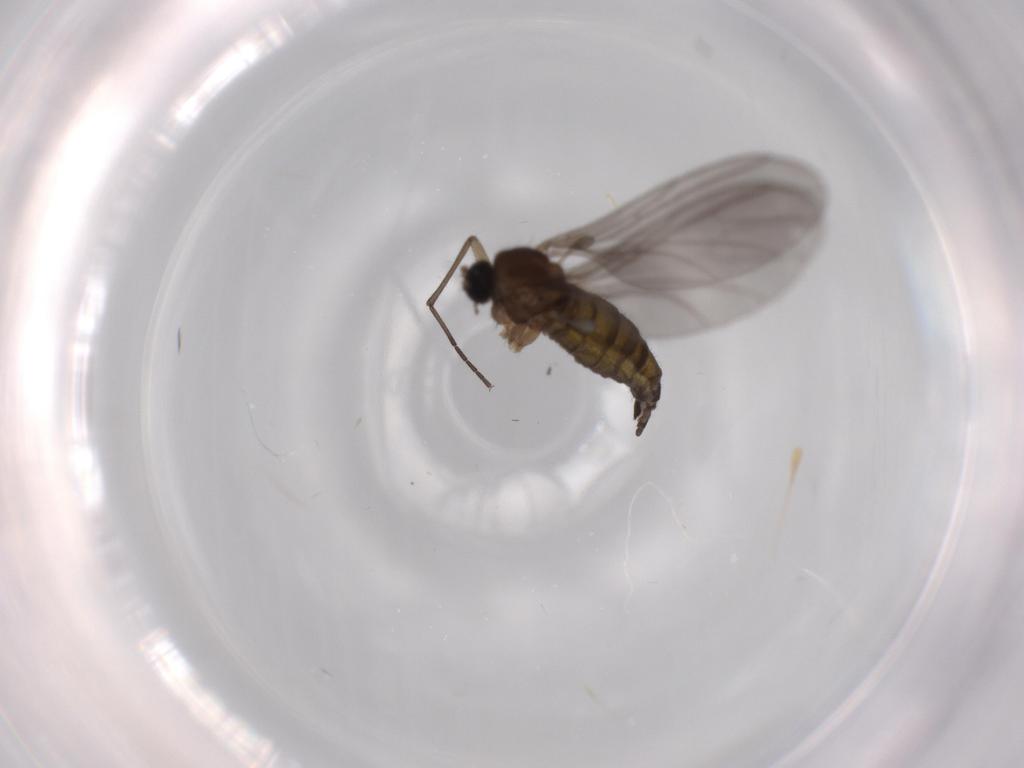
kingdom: Animalia
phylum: Arthropoda
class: Insecta
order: Diptera
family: Sciaridae
